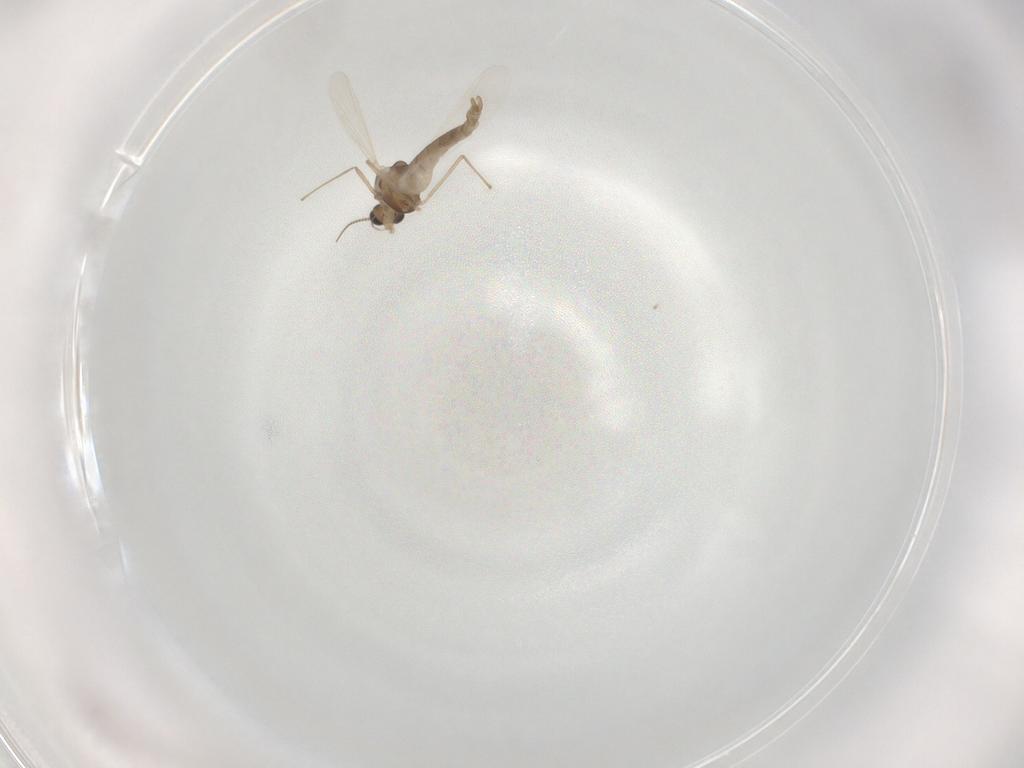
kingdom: Animalia
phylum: Arthropoda
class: Insecta
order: Diptera
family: Chironomidae
